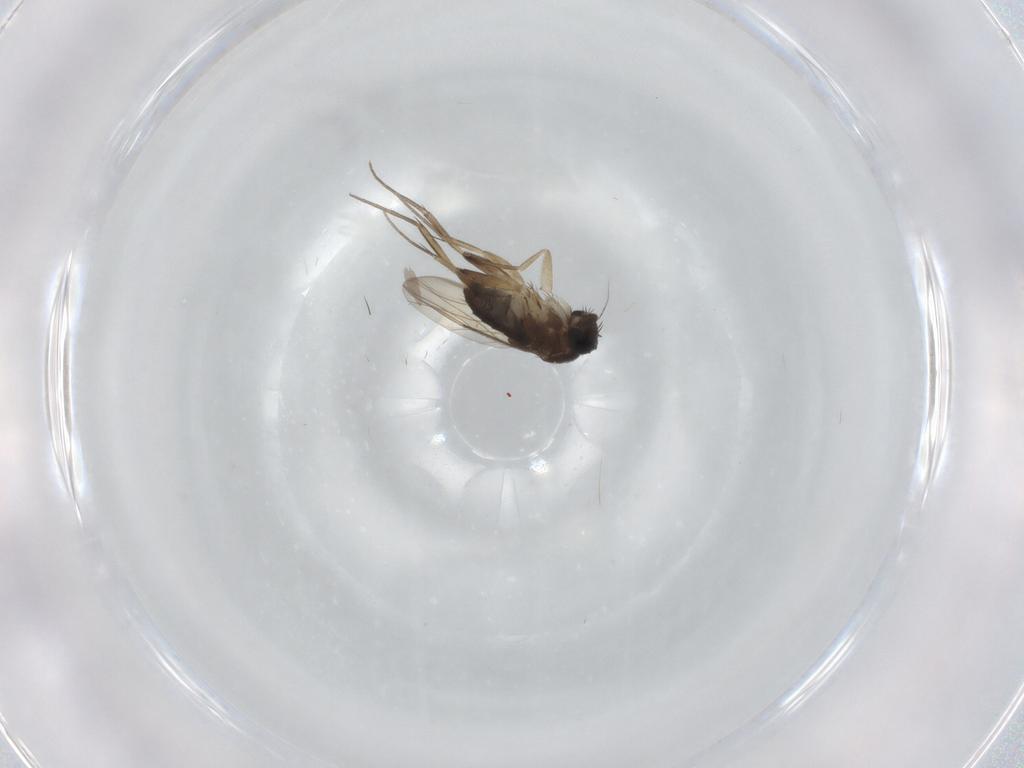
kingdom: Animalia
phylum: Arthropoda
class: Insecta
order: Diptera
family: Phoridae
